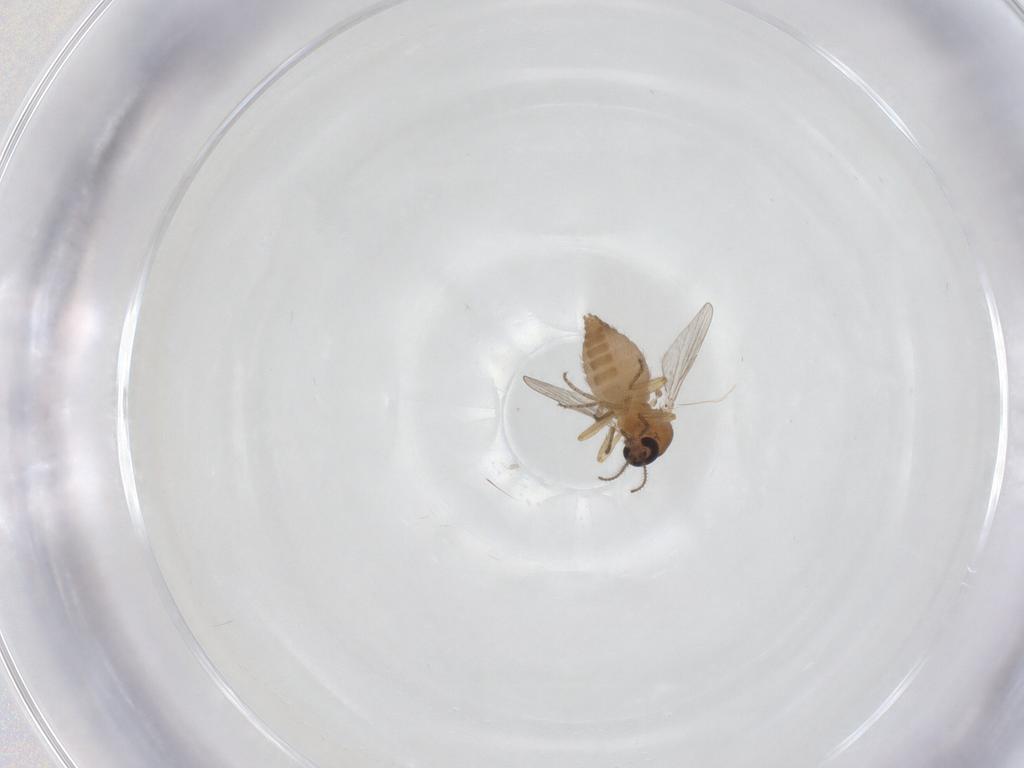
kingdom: Animalia
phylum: Arthropoda
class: Insecta
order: Diptera
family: Ceratopogonidae
